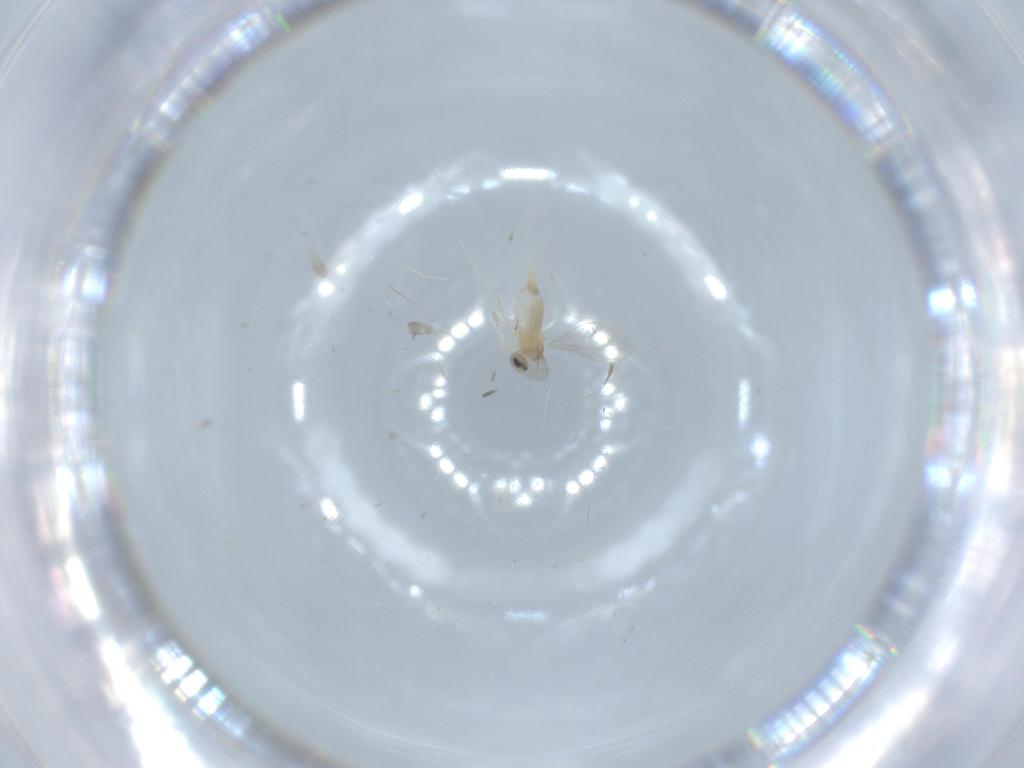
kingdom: Animalia
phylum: Arthropoda
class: Insecta
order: Diptera
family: Cecidomyiidae
